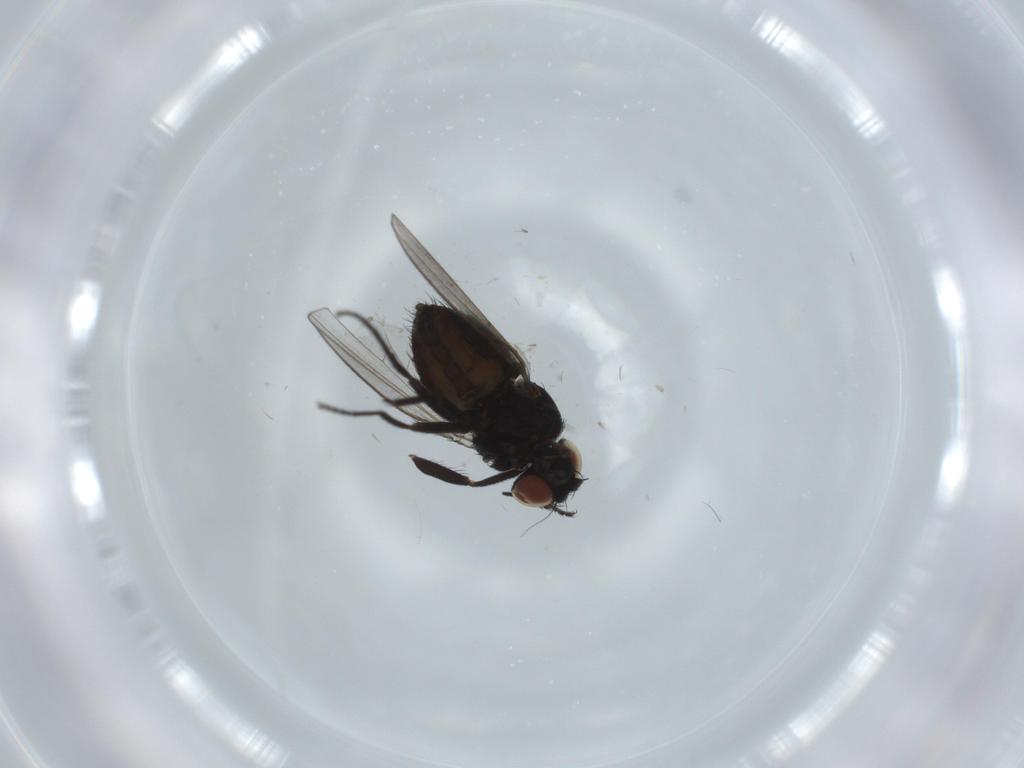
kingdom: Animalia
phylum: Arthropoda
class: Insecta
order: Diptera
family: Milichiidae
